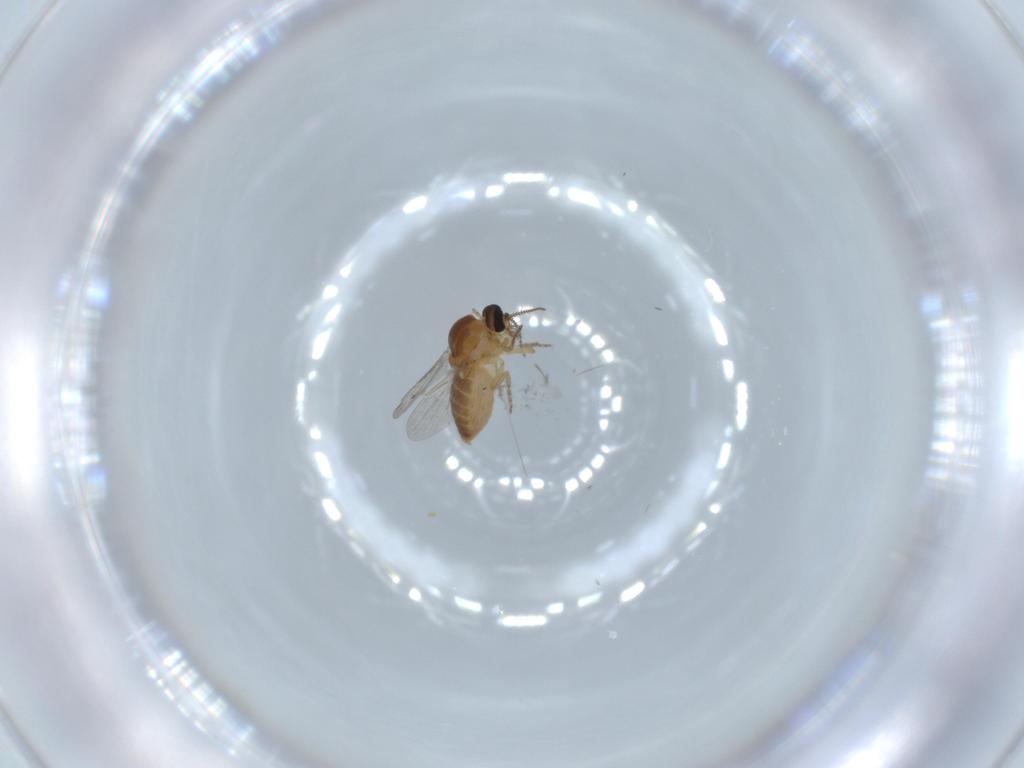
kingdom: Animalia
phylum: Arthropoda
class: Insecta
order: Diptera
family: Ceratopogonidae
